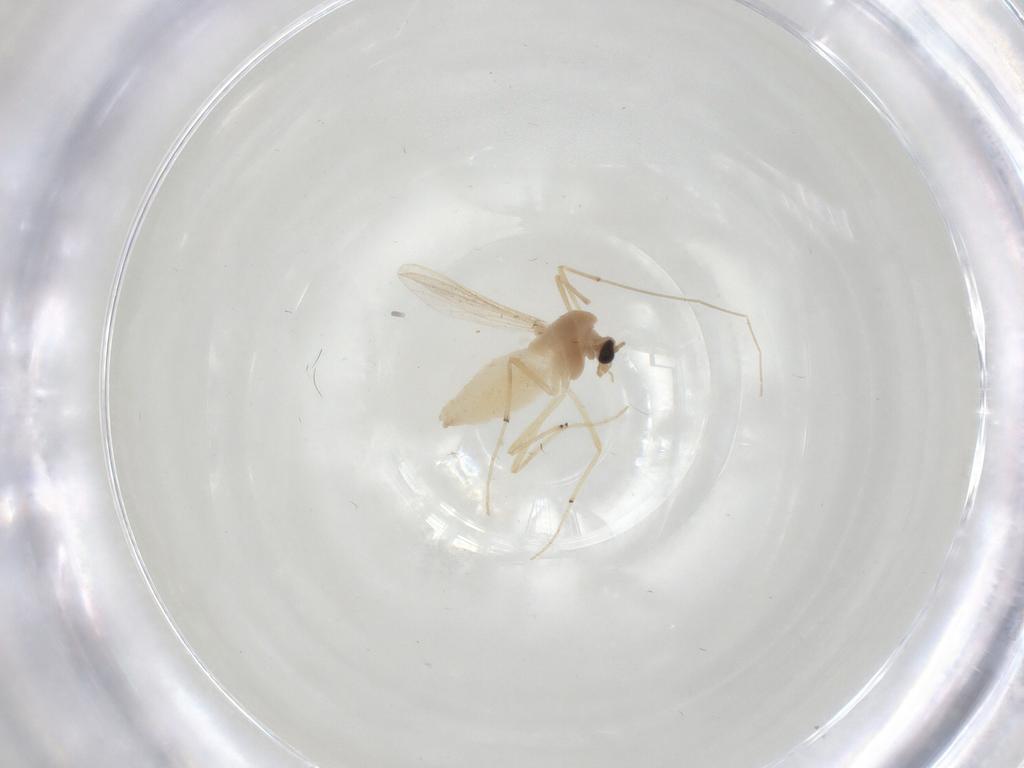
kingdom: Animalia
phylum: Arthropoda
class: Insecta
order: Diptera
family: Chironomidae
